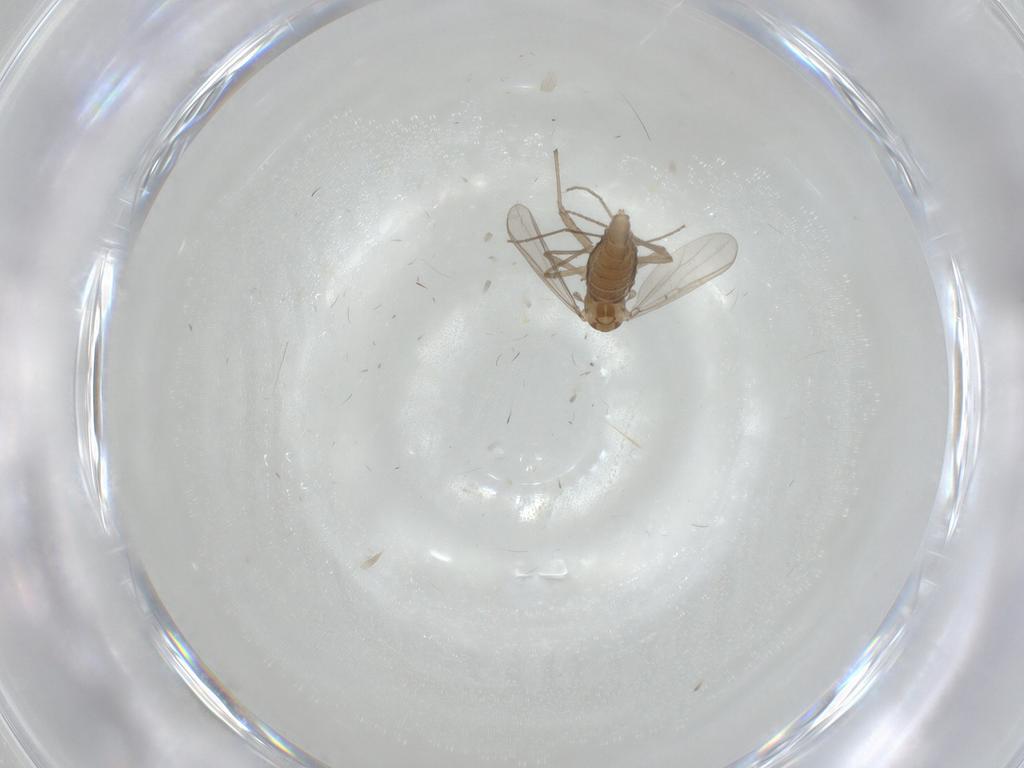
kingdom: Animalia
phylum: Arthropoda
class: Insecta
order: Diptera
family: Chironomidae
